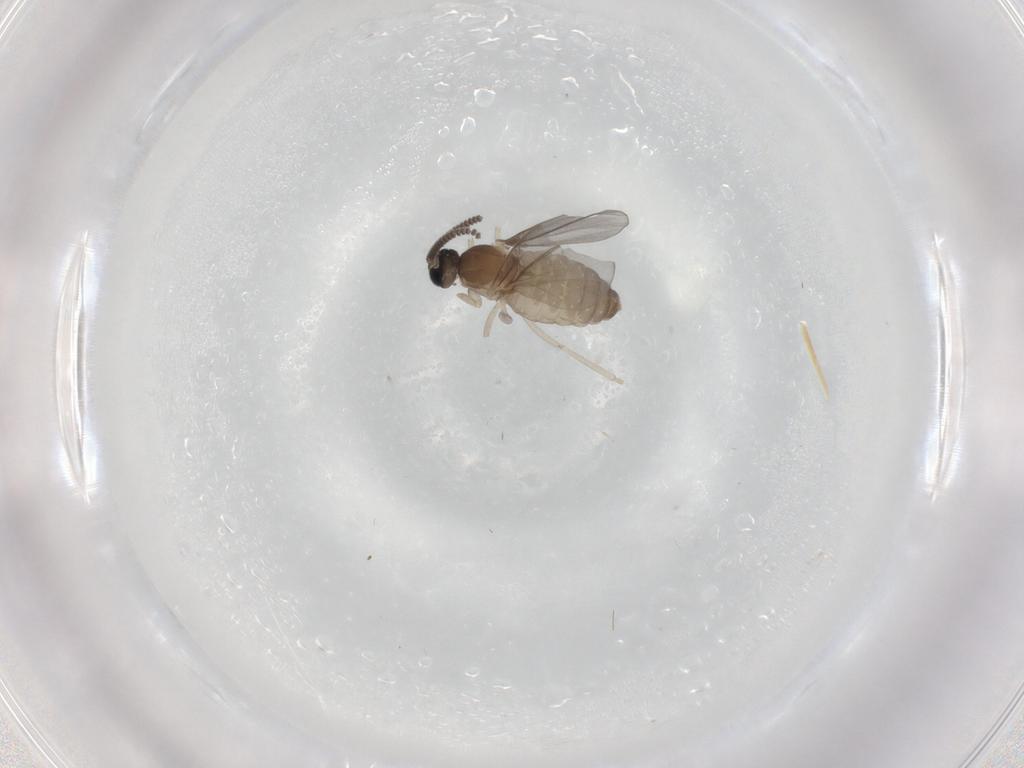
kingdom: Animalia
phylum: Arthropoda
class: Insecta
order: Diptera
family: Cecidomyiidae
